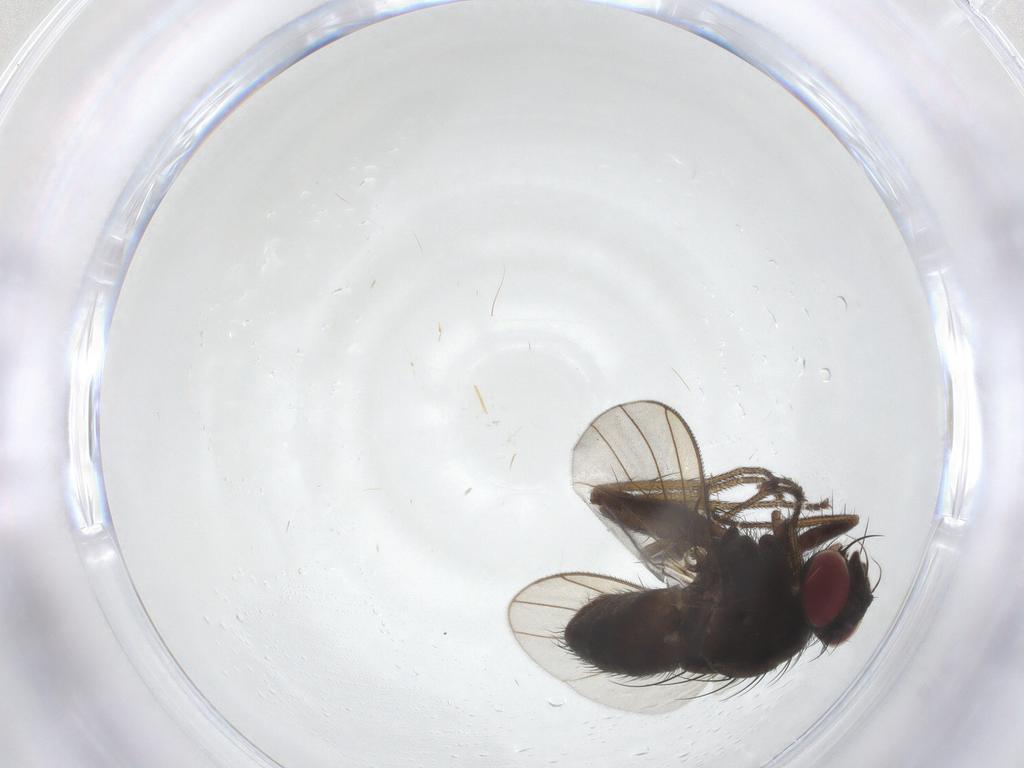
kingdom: Animalia
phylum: Arthropoda
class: Insecta
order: Diptera
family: Muscidae
